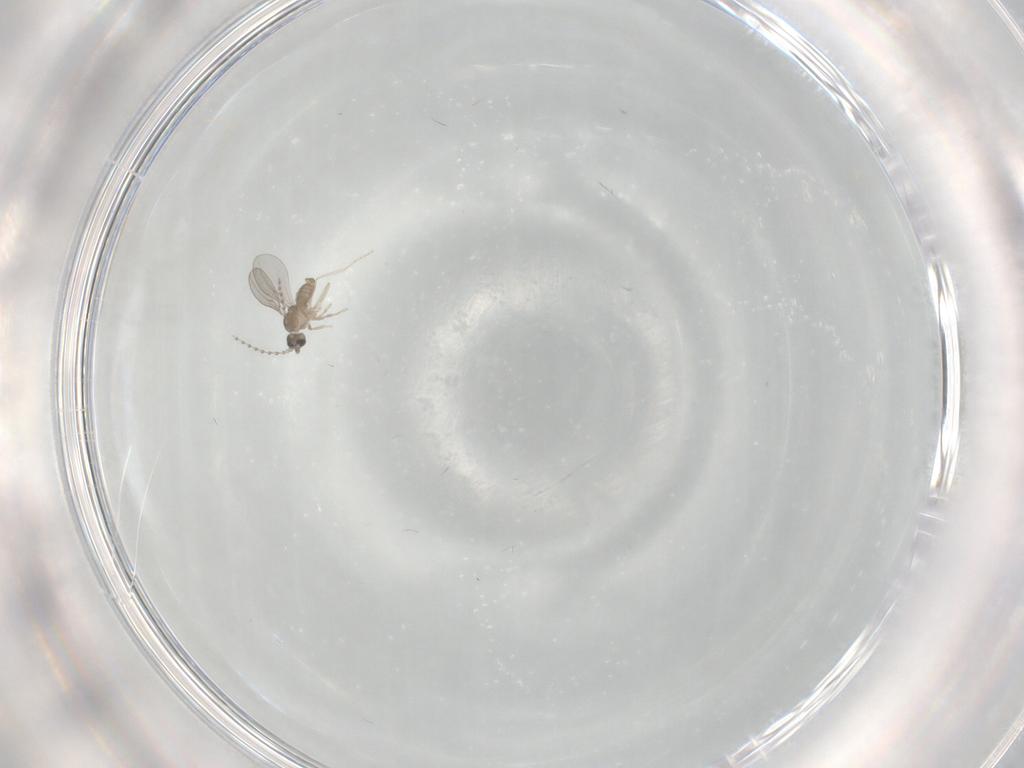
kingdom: Animalia
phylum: Arthropoda
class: Insecta
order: Diptera
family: Cecidomyiidae
